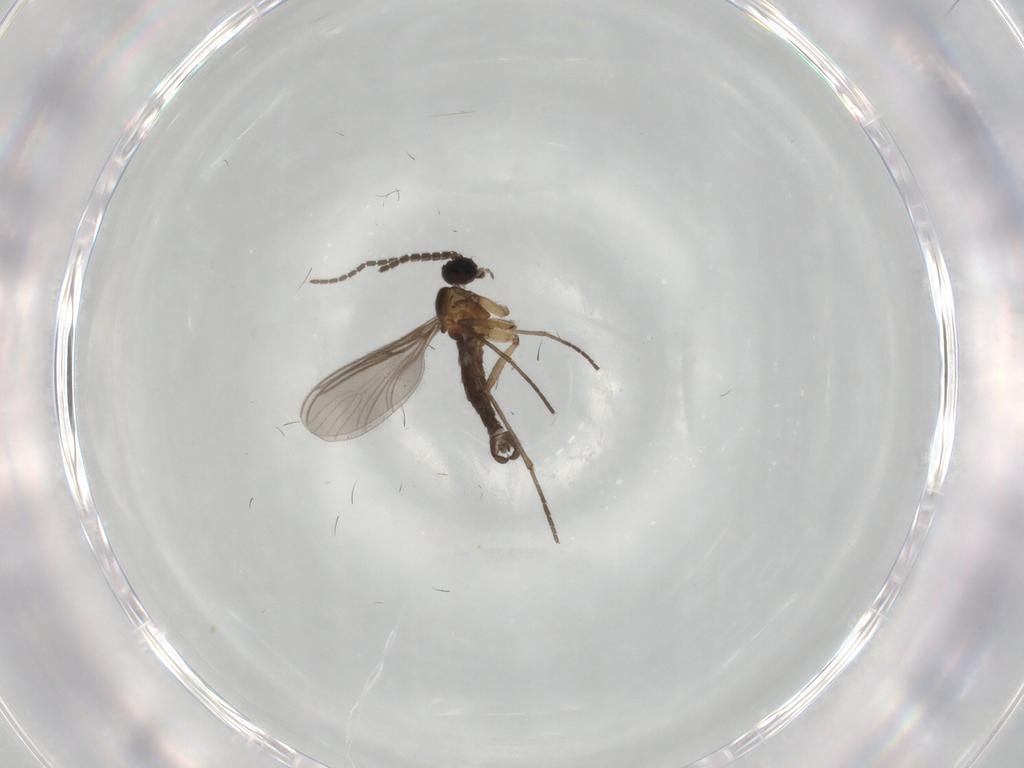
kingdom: Animalia
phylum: Arthropoda
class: Insecta
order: Diptera
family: Sciaridae
